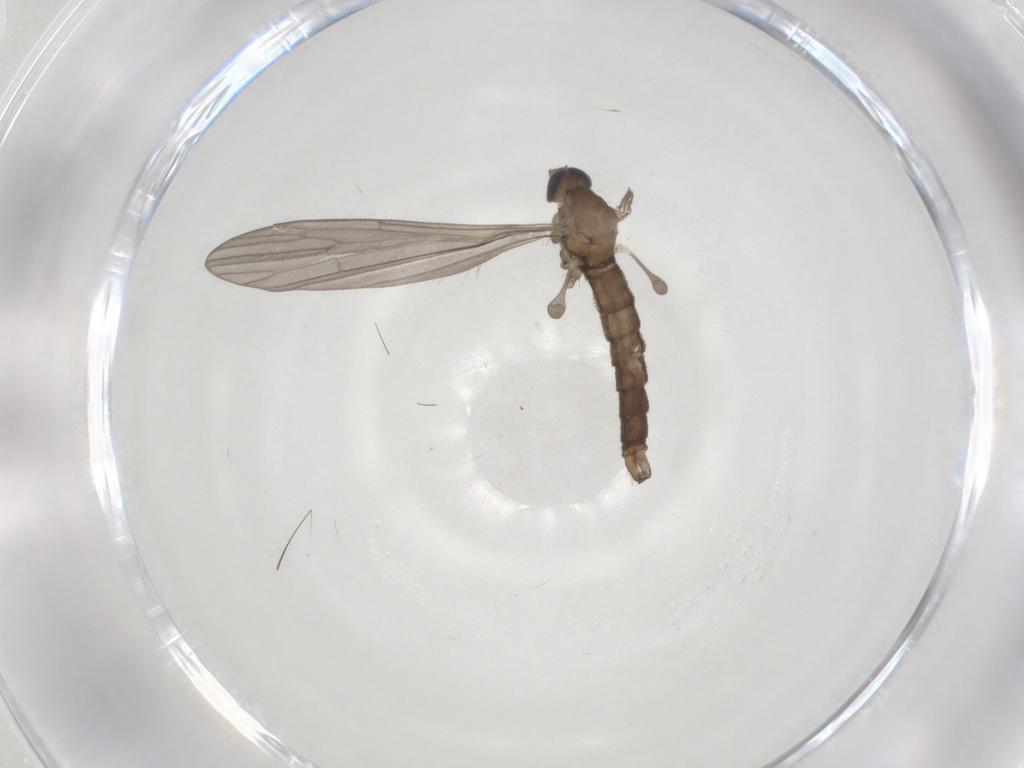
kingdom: Animalia
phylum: Arthropoda
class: Insecta
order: Diptera
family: Limoniidae
